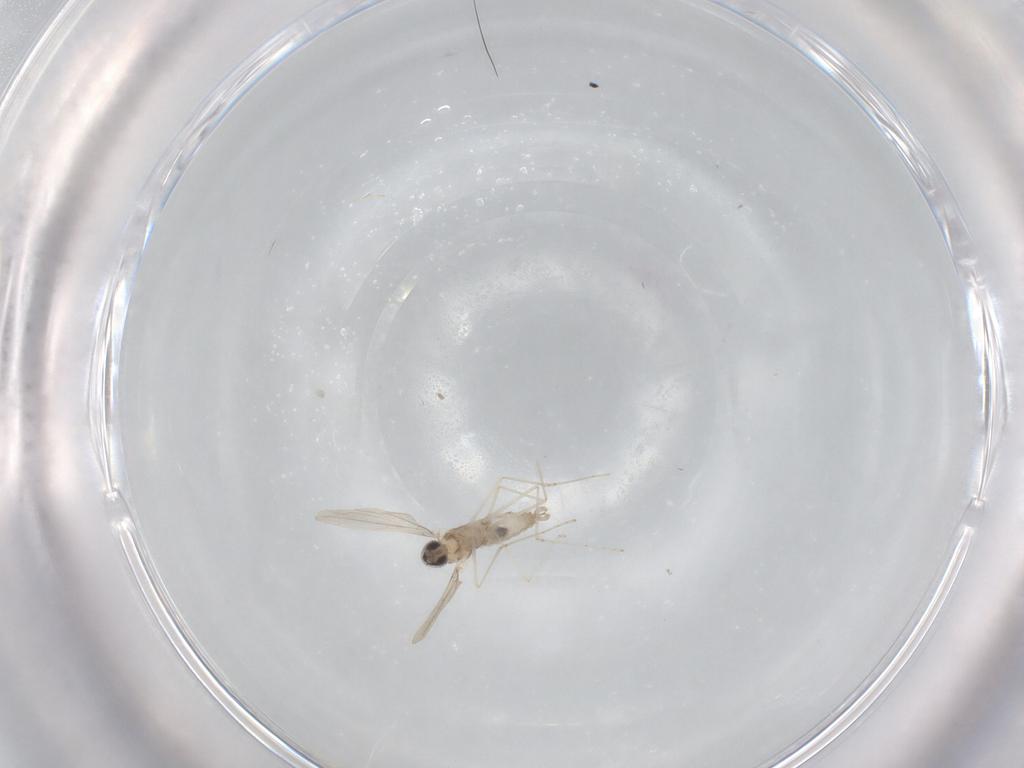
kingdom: Animalia
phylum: Arthropoda
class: Insecta
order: Diptera
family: Cecidomyiidae
